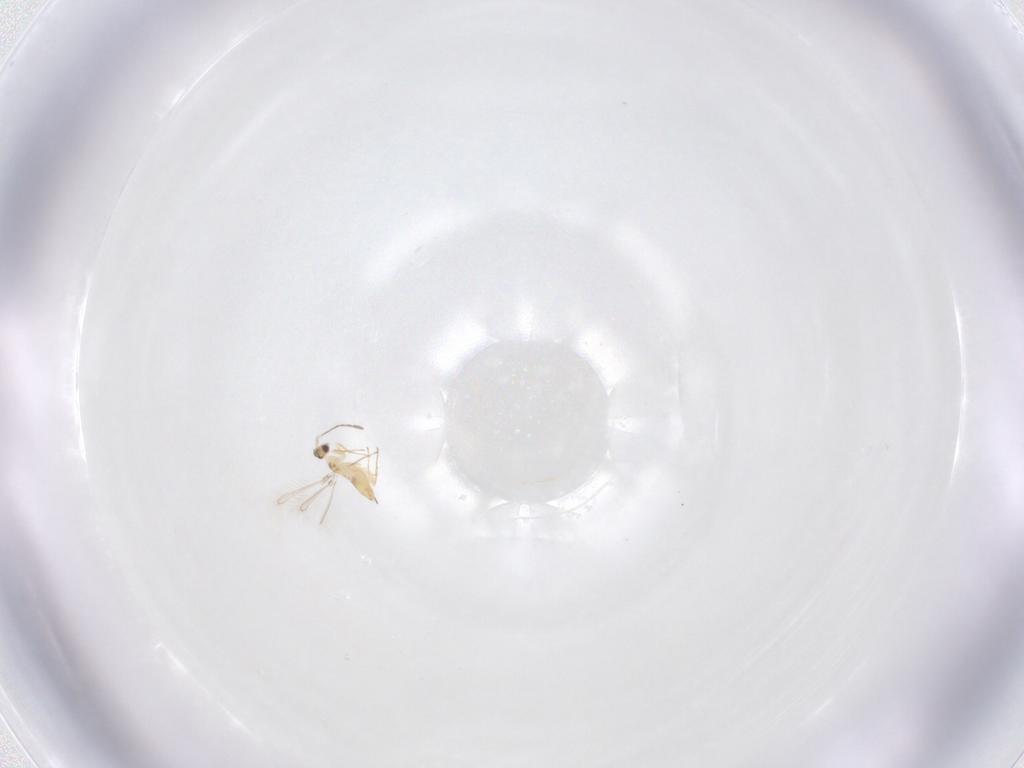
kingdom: Animalia
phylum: Arthropoda
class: Insecta
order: Hymenoptera
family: Mymaridae
